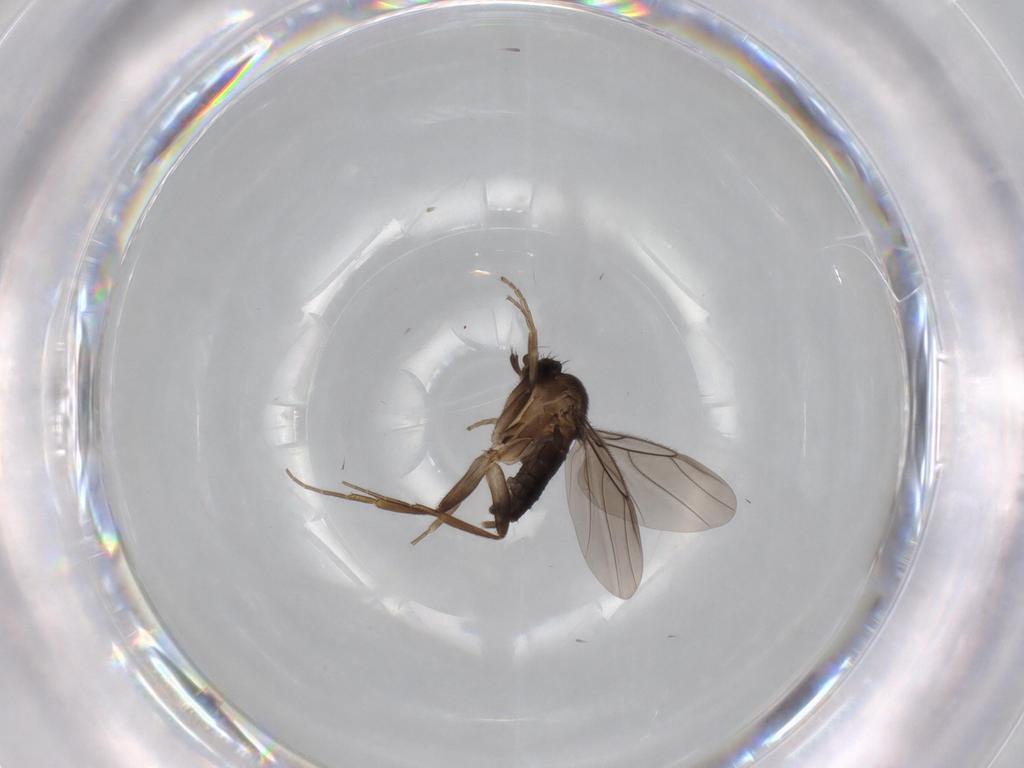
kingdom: Animalia
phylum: Arthropoda
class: Insecta
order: Diptera
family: Phoridae
